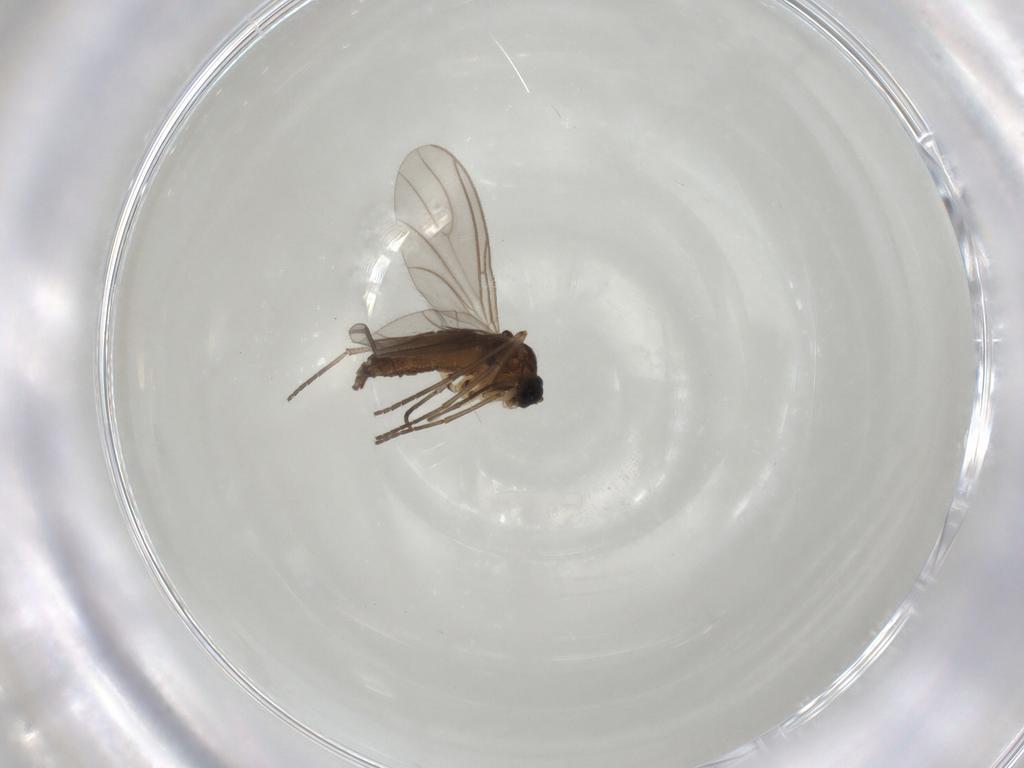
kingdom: Animalia
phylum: Arthropoda
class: Insecta
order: Diptera
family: Sciaridae
